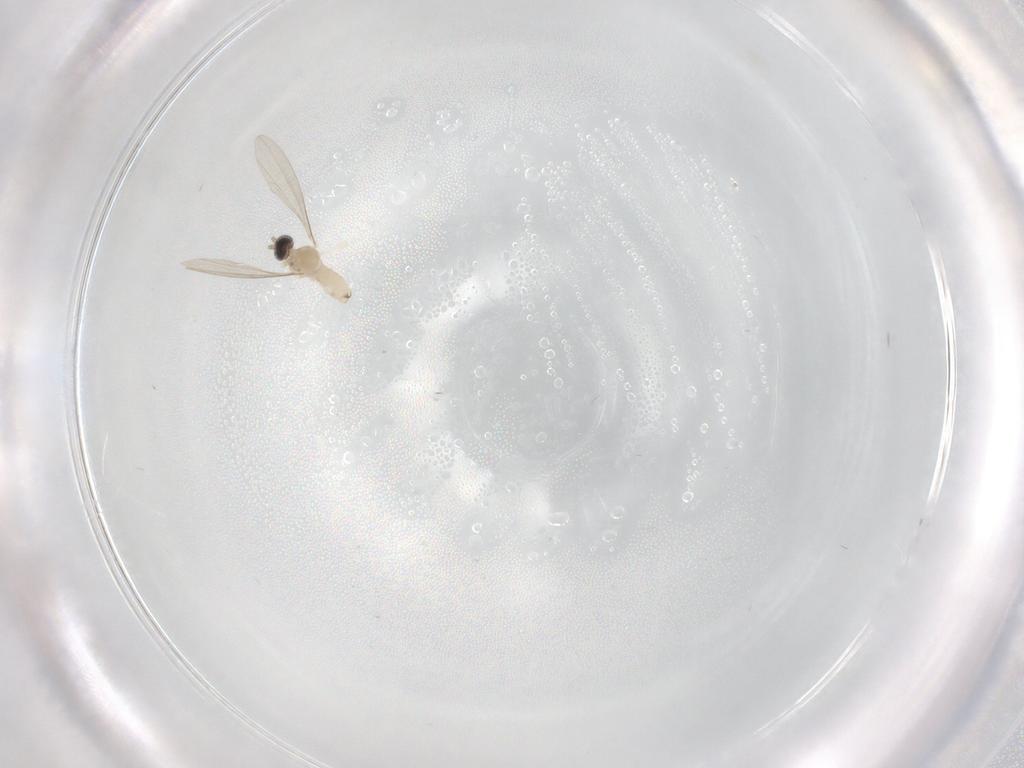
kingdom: Animalia
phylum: Arthropoda
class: Insecta
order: Diptera
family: Cecidomyiidae
